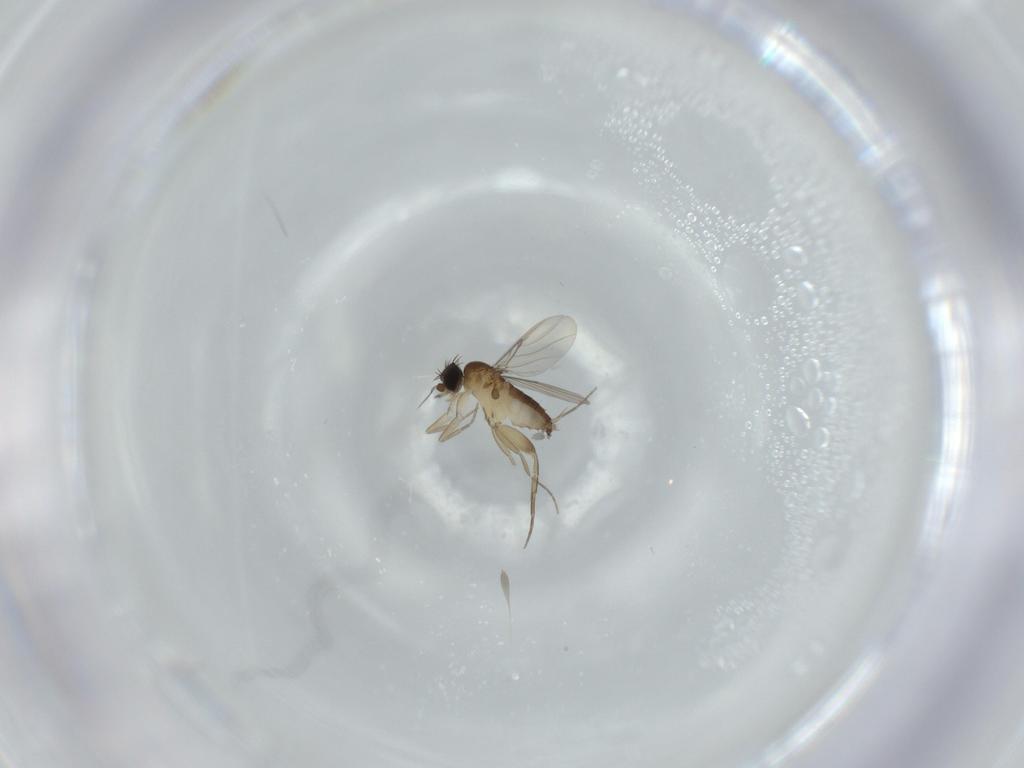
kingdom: Animalia
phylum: Arthropoda
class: Insecta
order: Diptera
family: Phoridae
